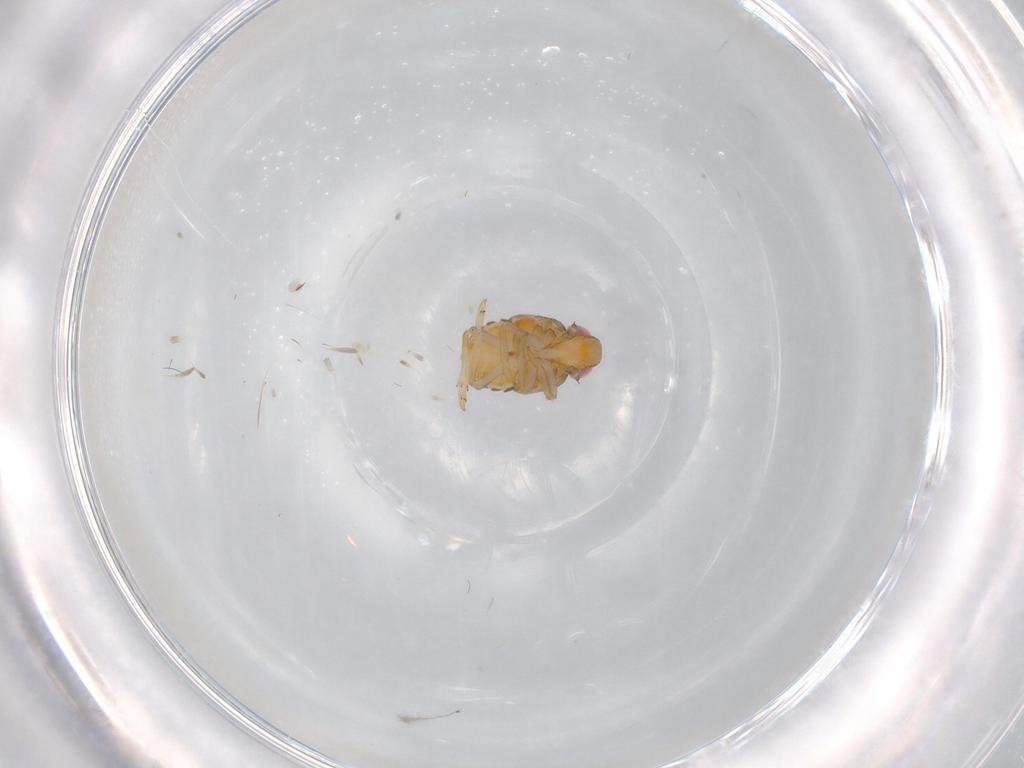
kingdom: Animalia
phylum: Arthropoda
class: Insecta
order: Hemiptera
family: Issidae
